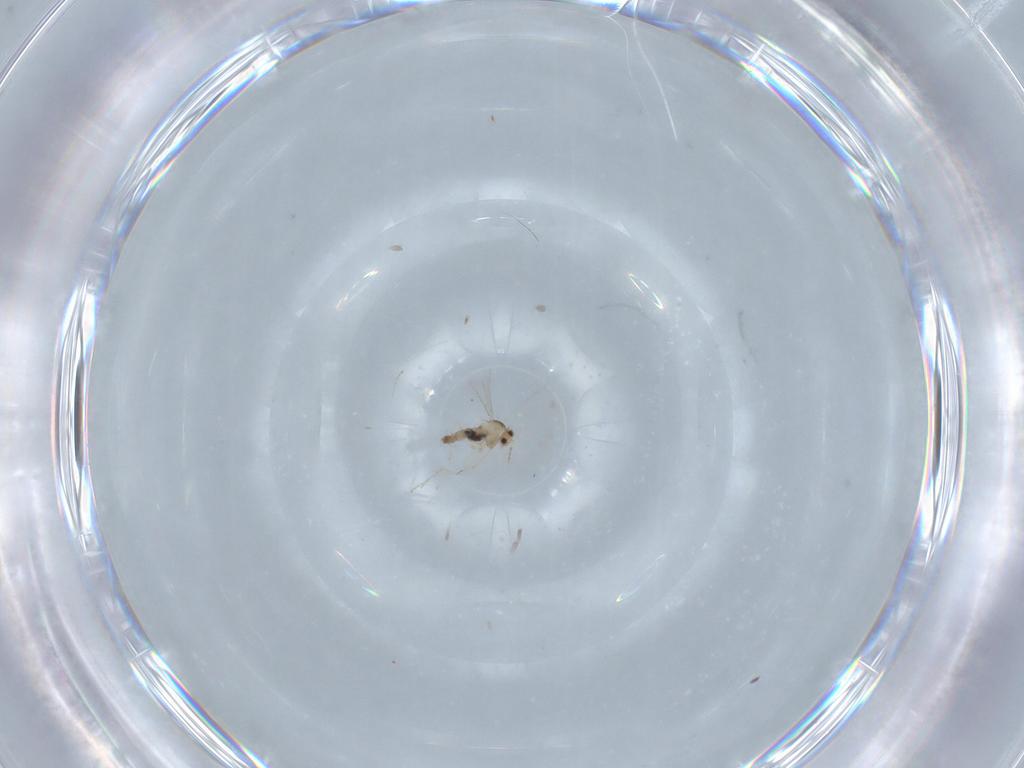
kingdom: Animalia
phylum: Arthropoda
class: Insecta
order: Diptera
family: Cecidomyiidae
